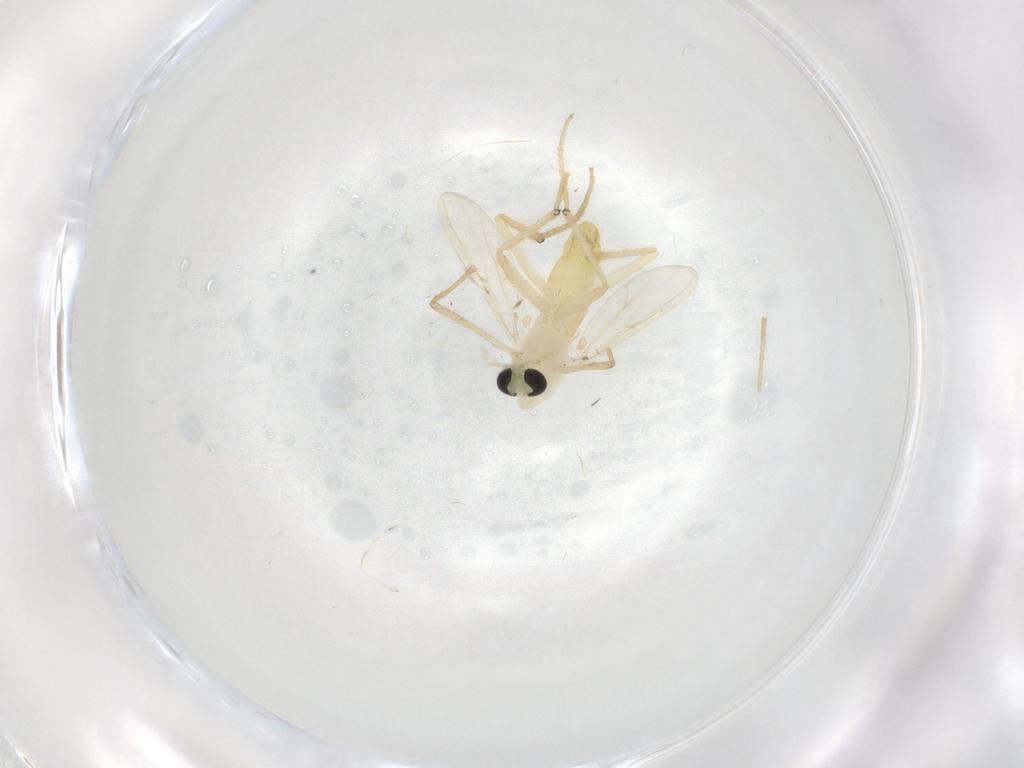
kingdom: Animalia
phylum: Arthropoda
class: Insecta
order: Diptera
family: Chironomidae
